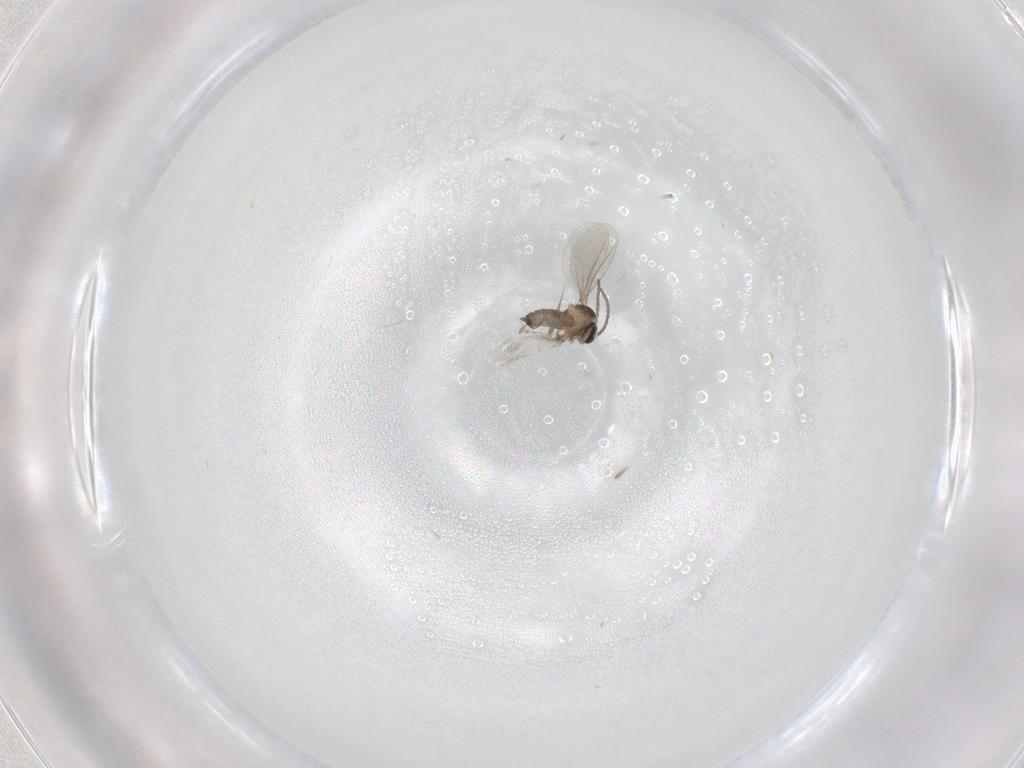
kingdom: Animalia
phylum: Arthropoda
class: Insecta
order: Diptera
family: Cecidomyiidae
